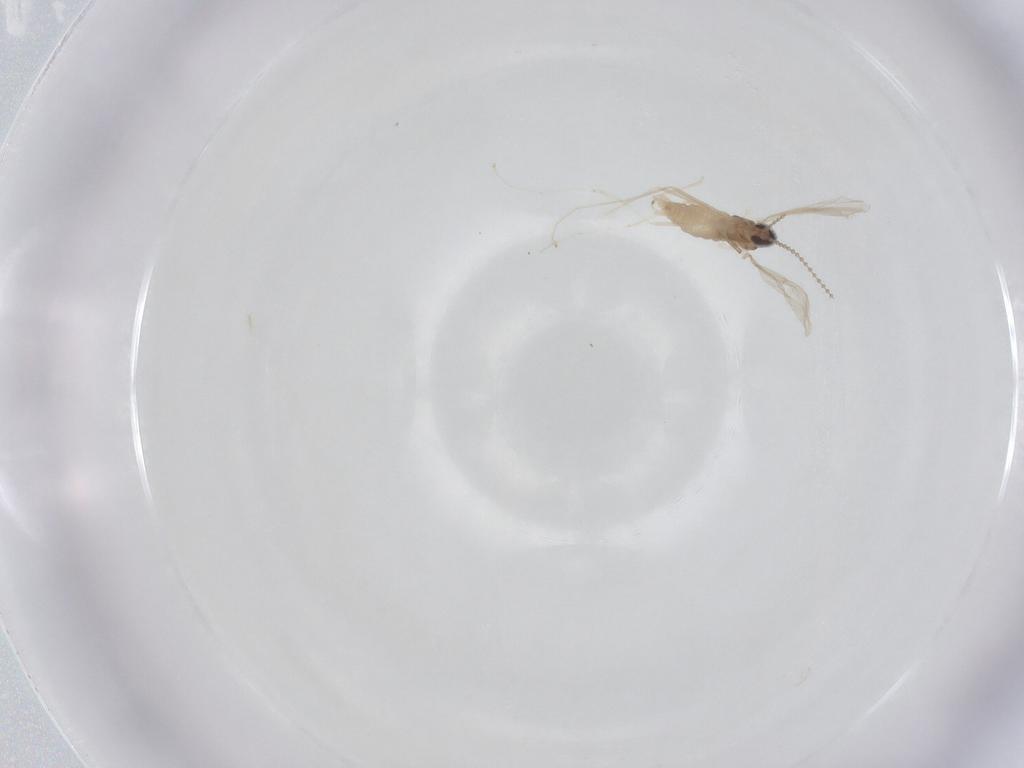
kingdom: Animalia
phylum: Arthropoda
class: Insecta
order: Diptera
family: Ceratopogonidae
